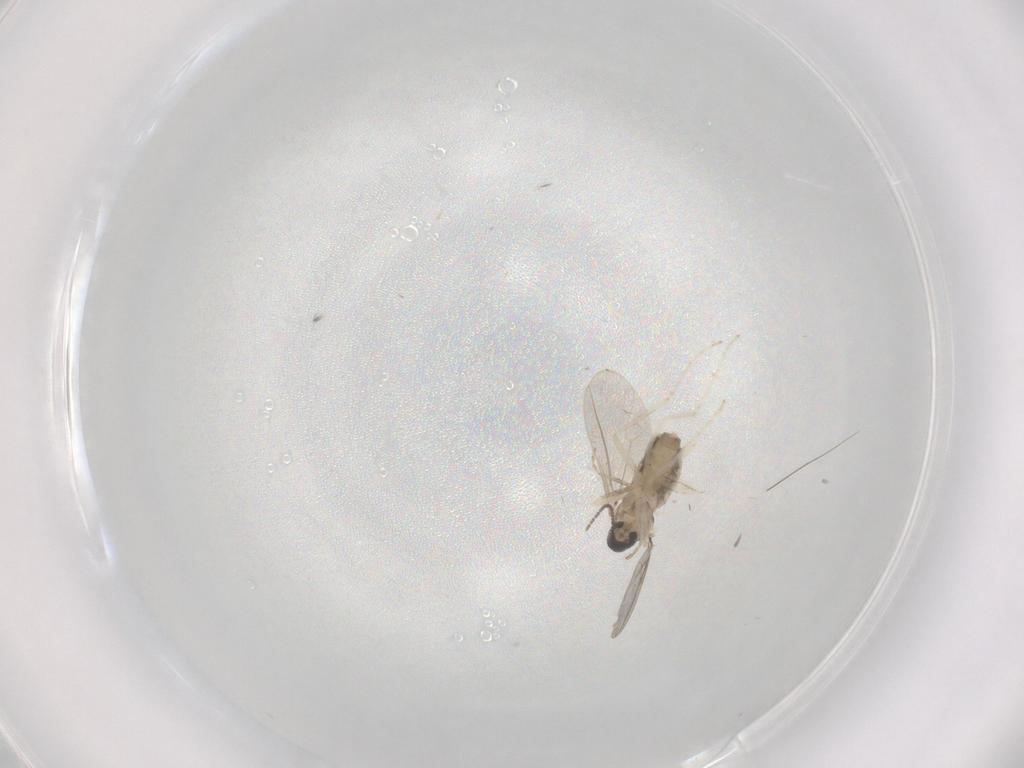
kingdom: Animalia
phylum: Arthropoda
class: Insecta
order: Diptera
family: Cecidomyiidae
